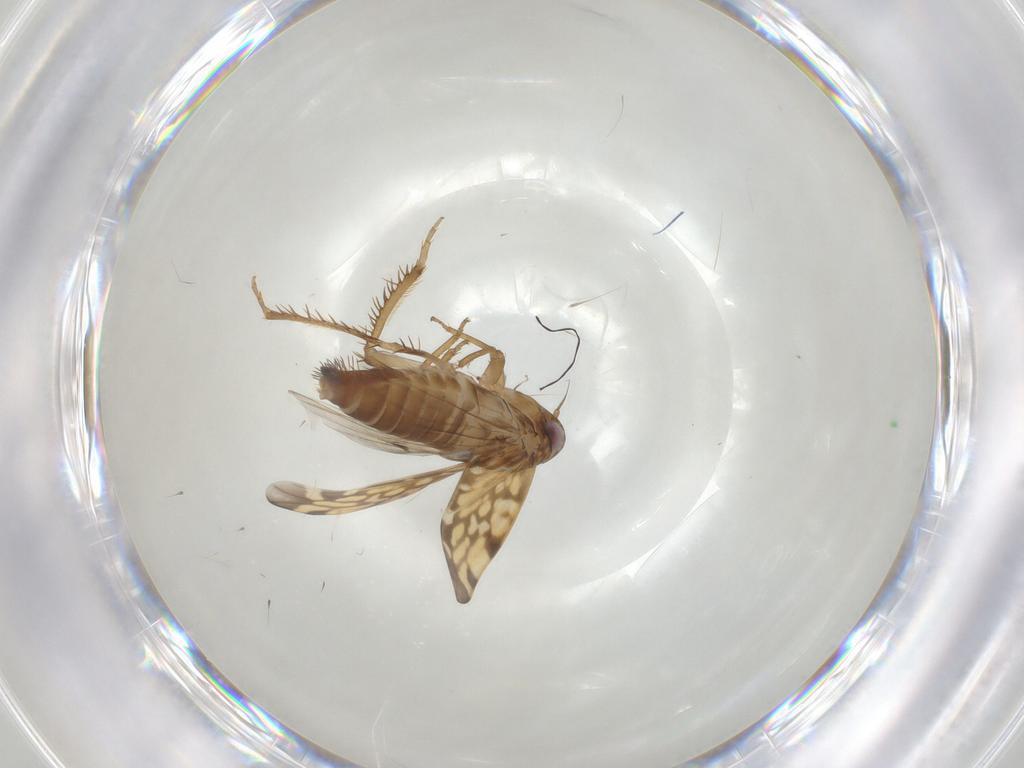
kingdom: Animalia
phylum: Arthropoda
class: Insecta
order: Hemiptera
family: Cicadellidae
